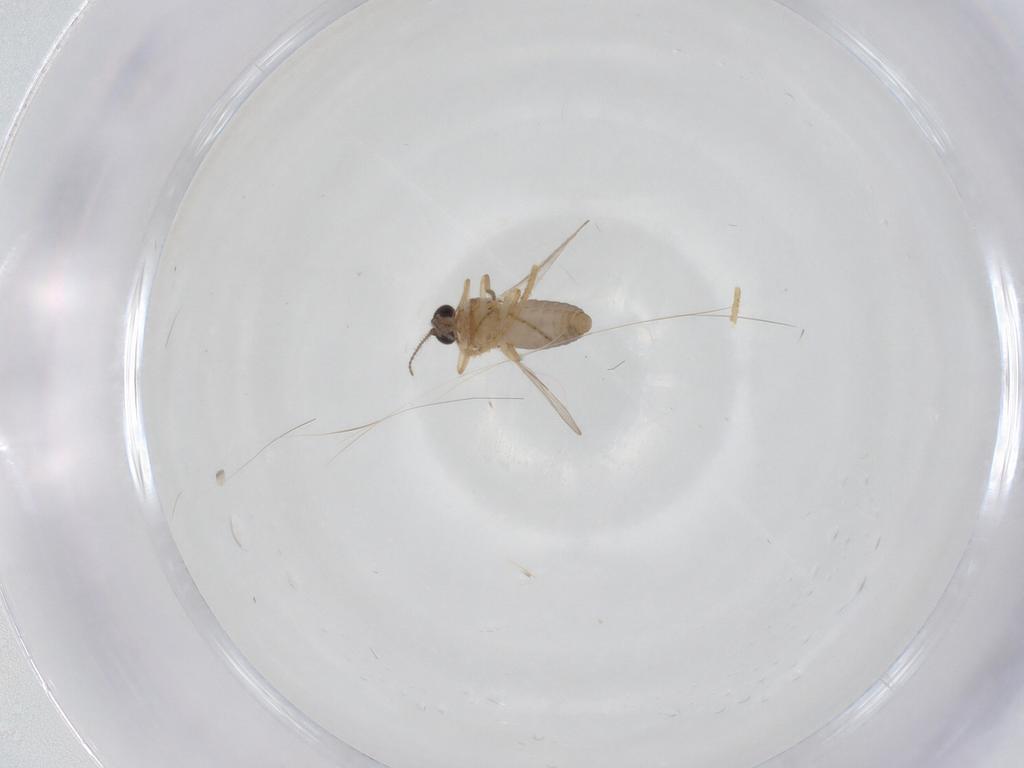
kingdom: Animalia
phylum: Arthropoda
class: Insecta
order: Diptera
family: Ceratopogonidae
